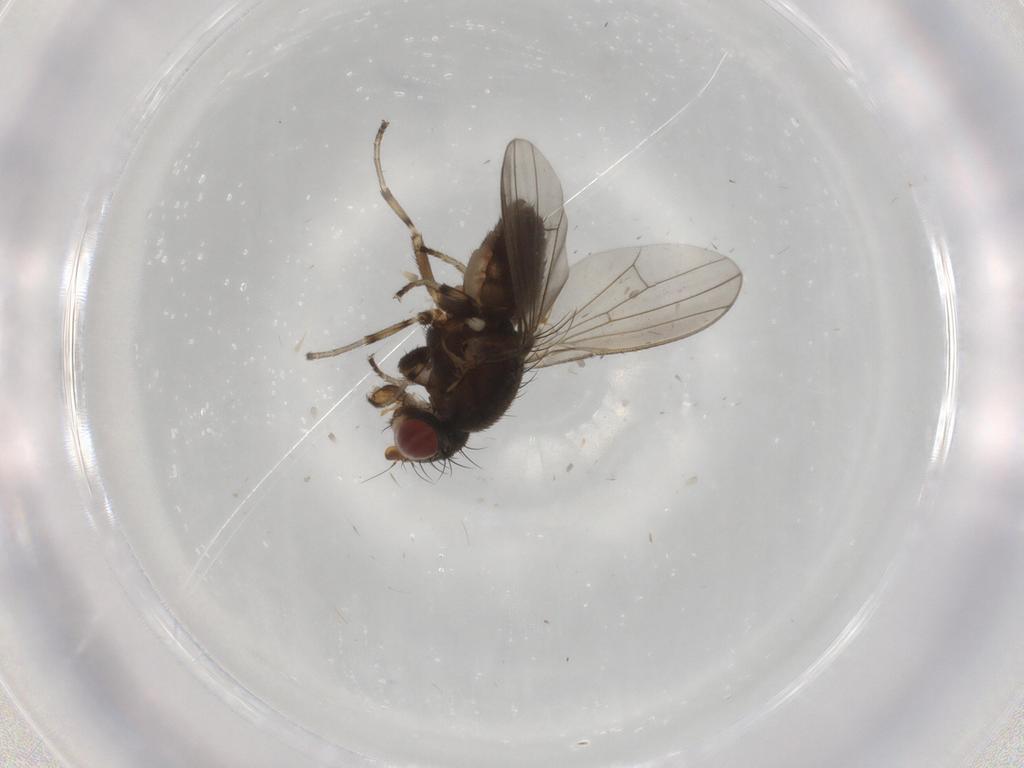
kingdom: Animalia
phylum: Arthropoda
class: Insecta
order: Diptera
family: Heleomyzidae
